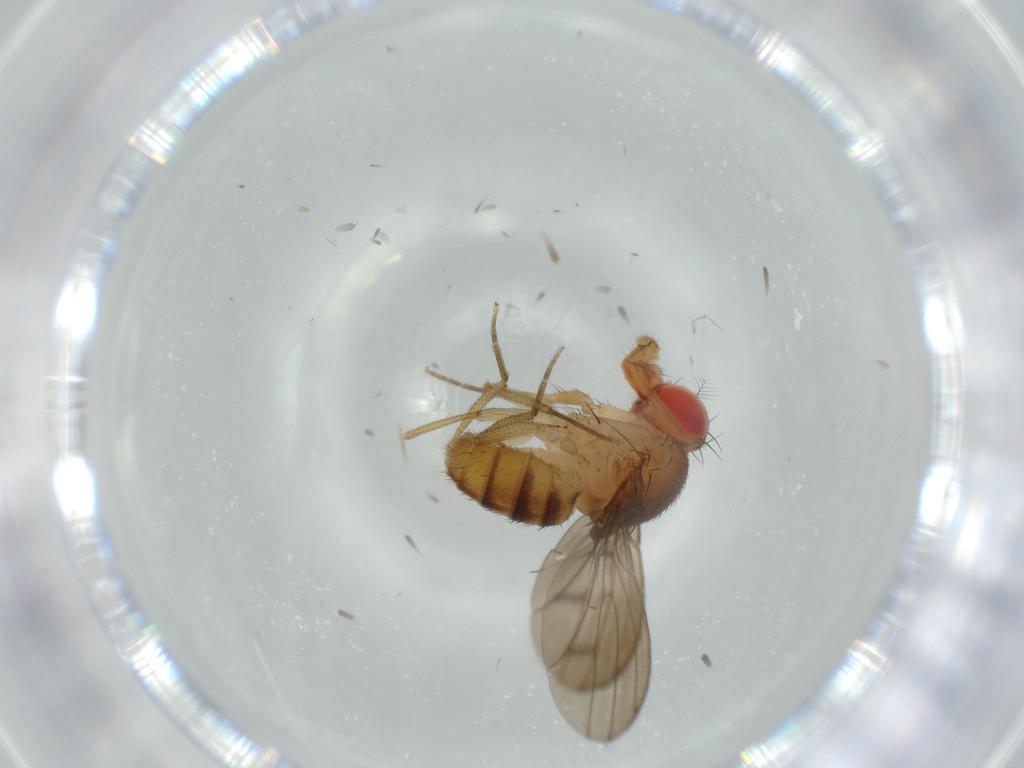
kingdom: Animalia
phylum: Arthropoda
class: Insecta
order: Diptera
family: Drosophilidae
